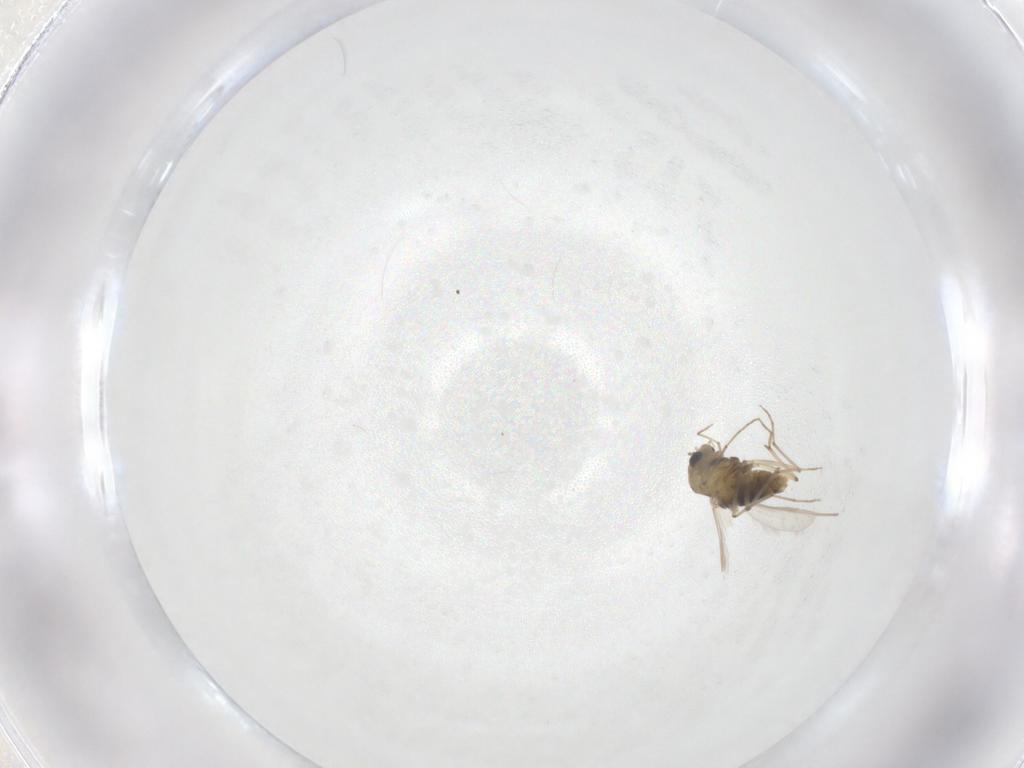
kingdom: Animalia
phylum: Arthropoda
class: Insecta
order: Diptera
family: Chironomidae
